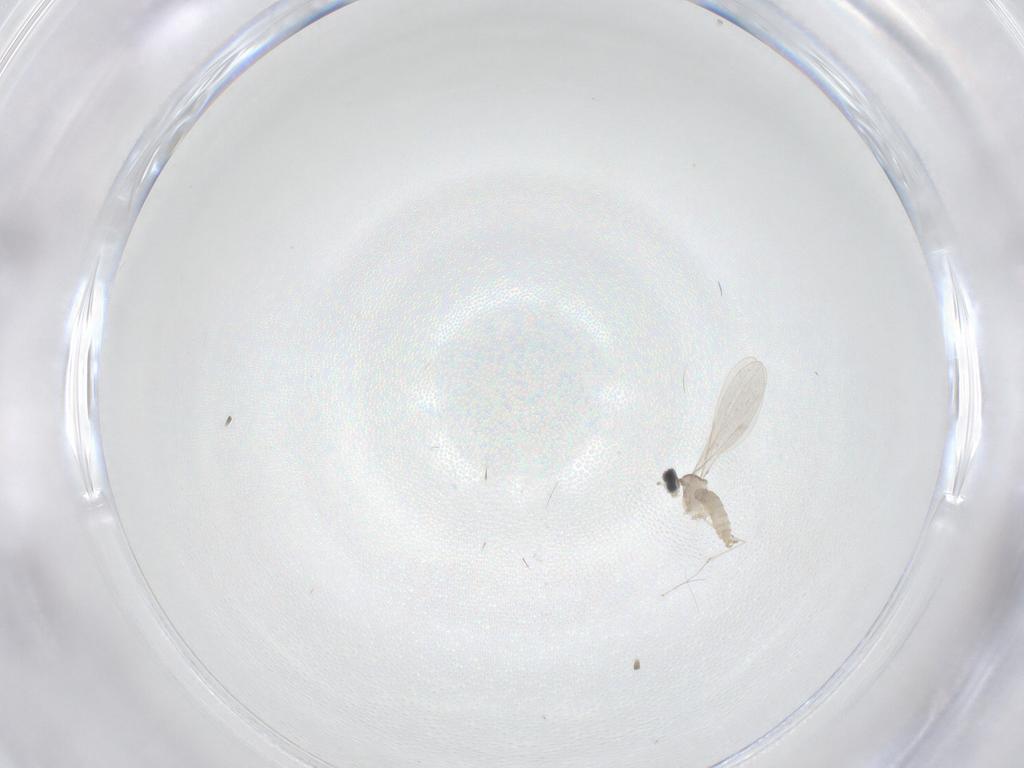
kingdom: Animalia
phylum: Arthropoda
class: Insecta
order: Diptera
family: Cecidomyiidae
